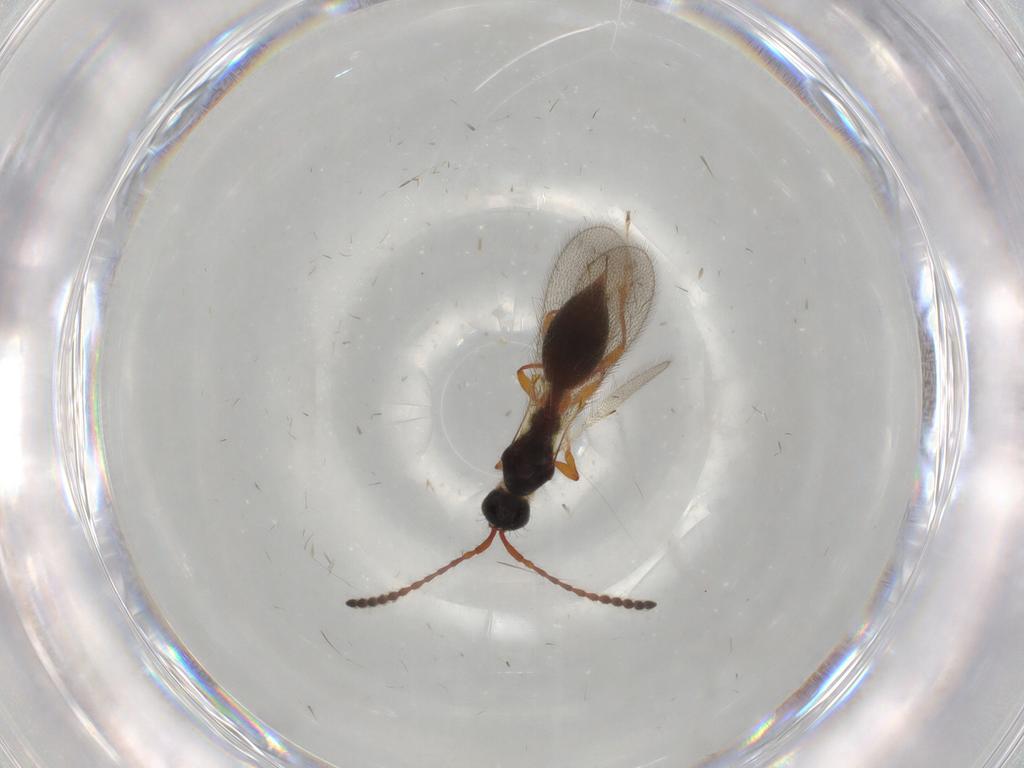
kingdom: Animalia
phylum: Arthropoda
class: Insecta
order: Hymenoptera
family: Diapriidae
